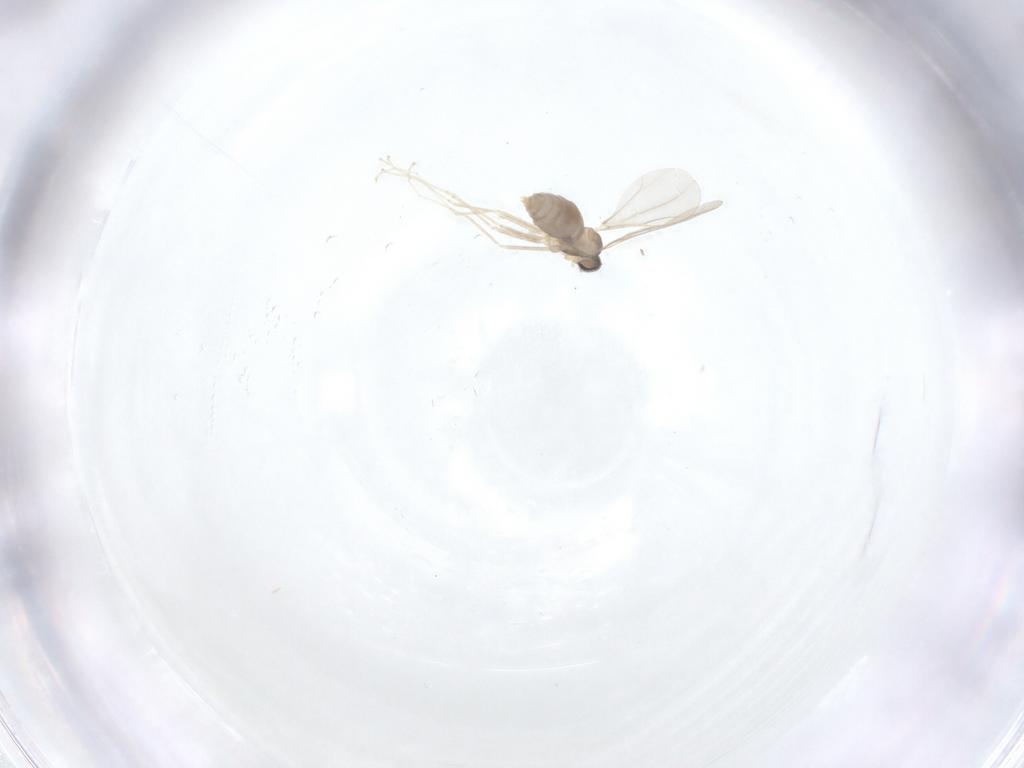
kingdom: Animalia
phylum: Arthropoda
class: Insecta
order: Diptera
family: Cecidomyiidae
